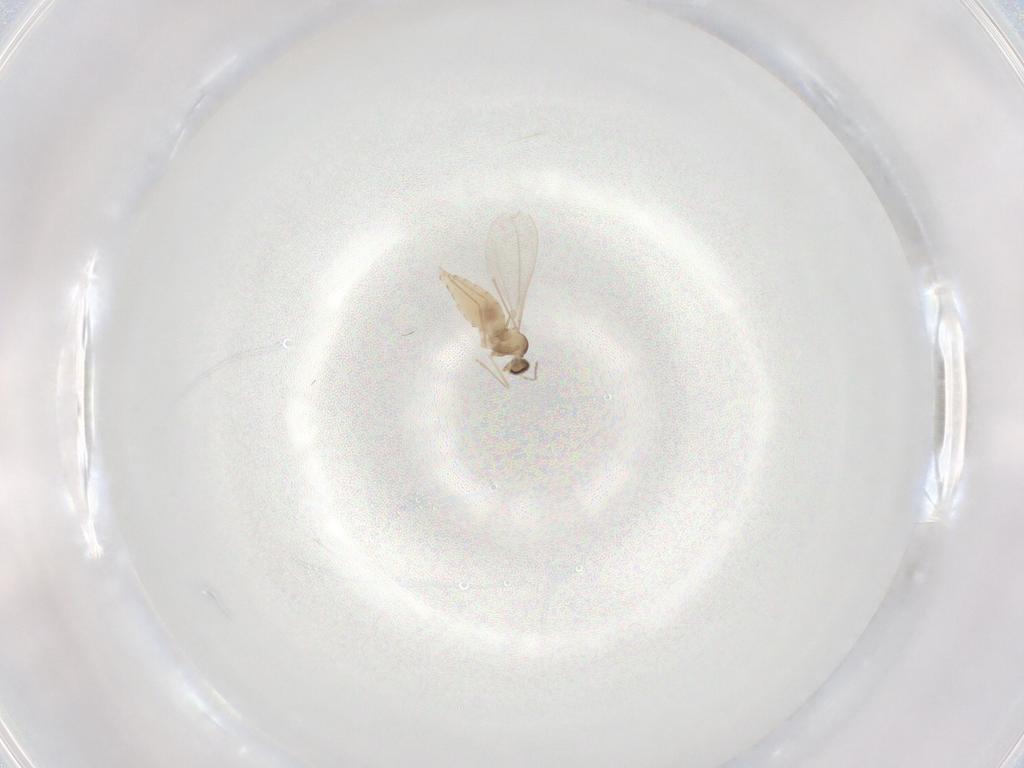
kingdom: Animalia
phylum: Arthropoda
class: Insecta
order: Diptera
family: Cecidomyiidae
